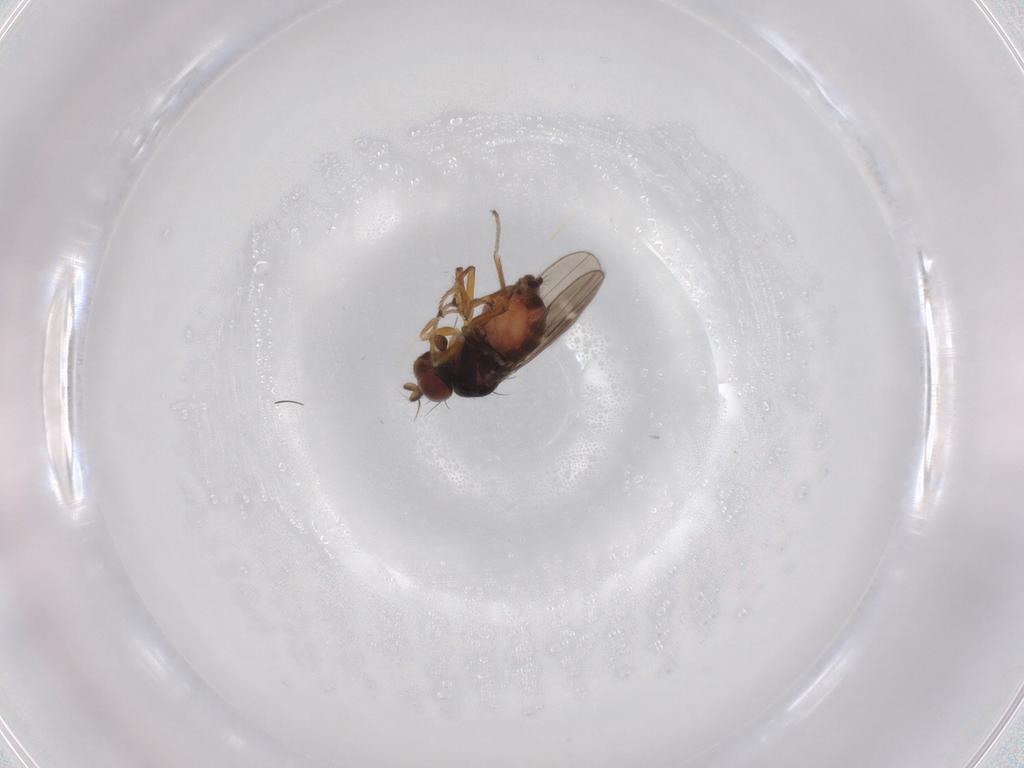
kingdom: Animalia
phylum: Arthropoda
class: Insecta
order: Diptera
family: Ephydridae
